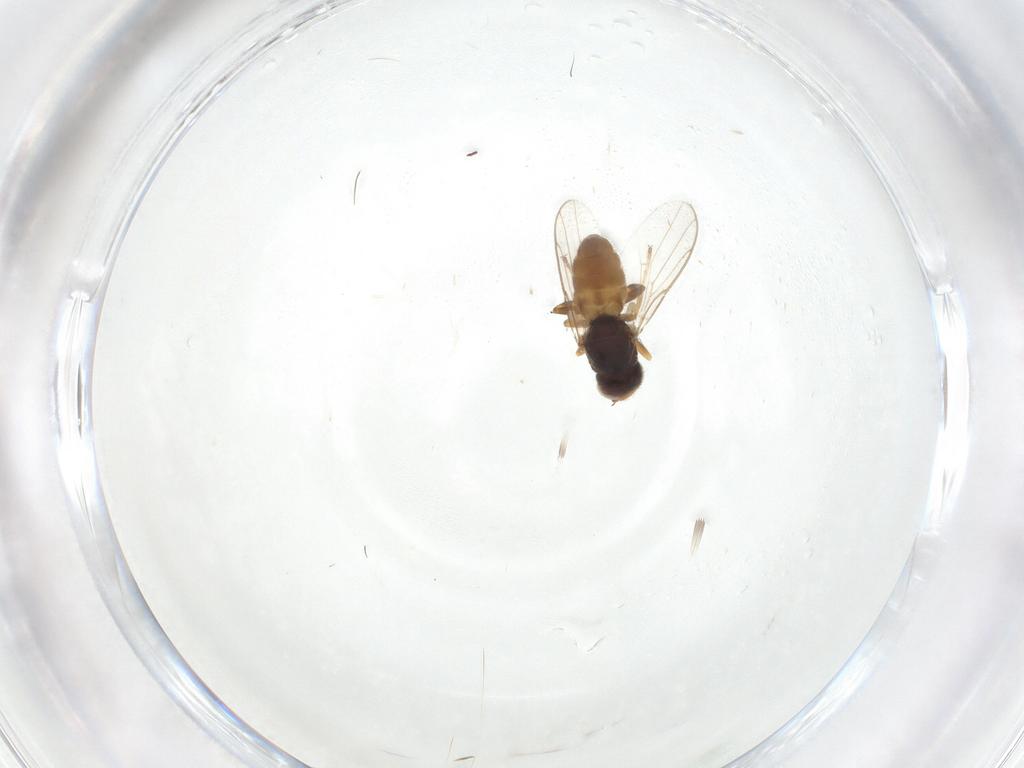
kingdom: Animalia
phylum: Arthropoda
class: Insecta
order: Diptera
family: Chloropidae
